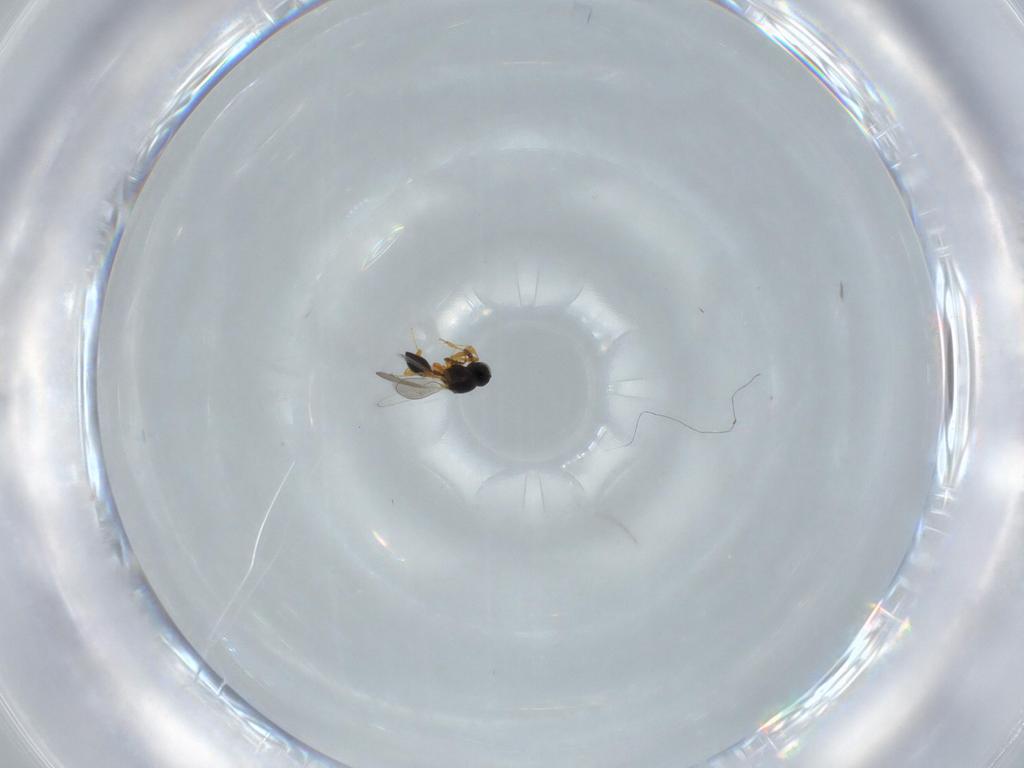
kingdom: Animalia
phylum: Arthropoda
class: Insecta
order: Hymenoptera
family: Platygastridae
